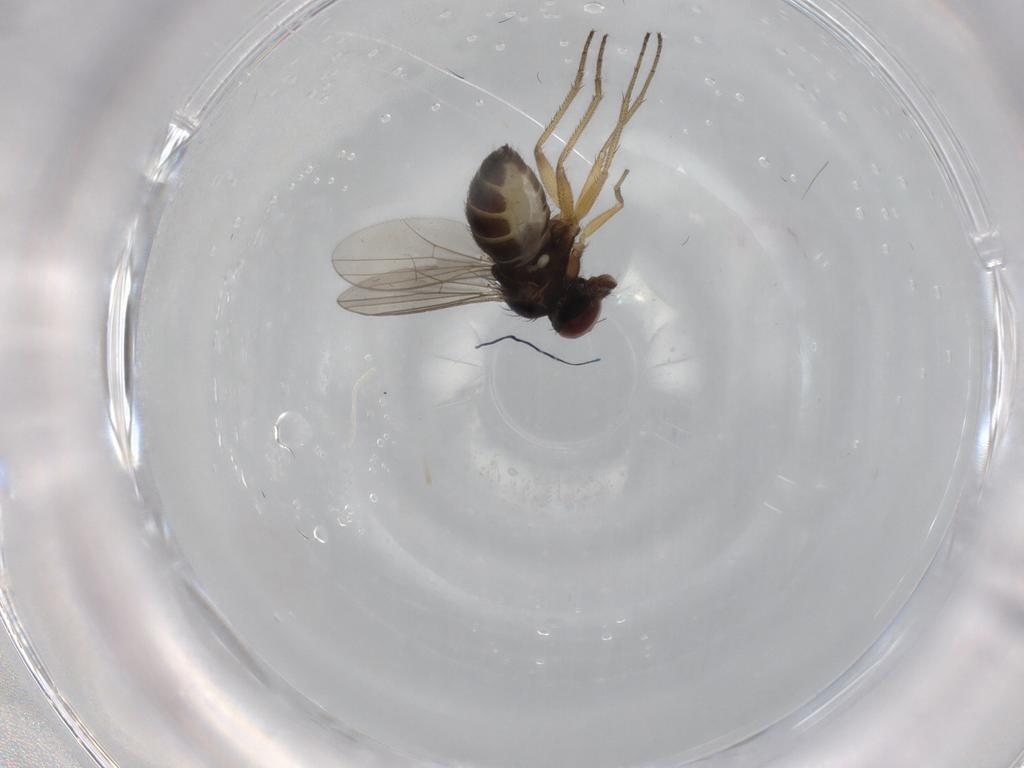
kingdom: Animalia
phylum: Arthropoda
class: Insecta
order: Diptera
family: Dolichopodidae
